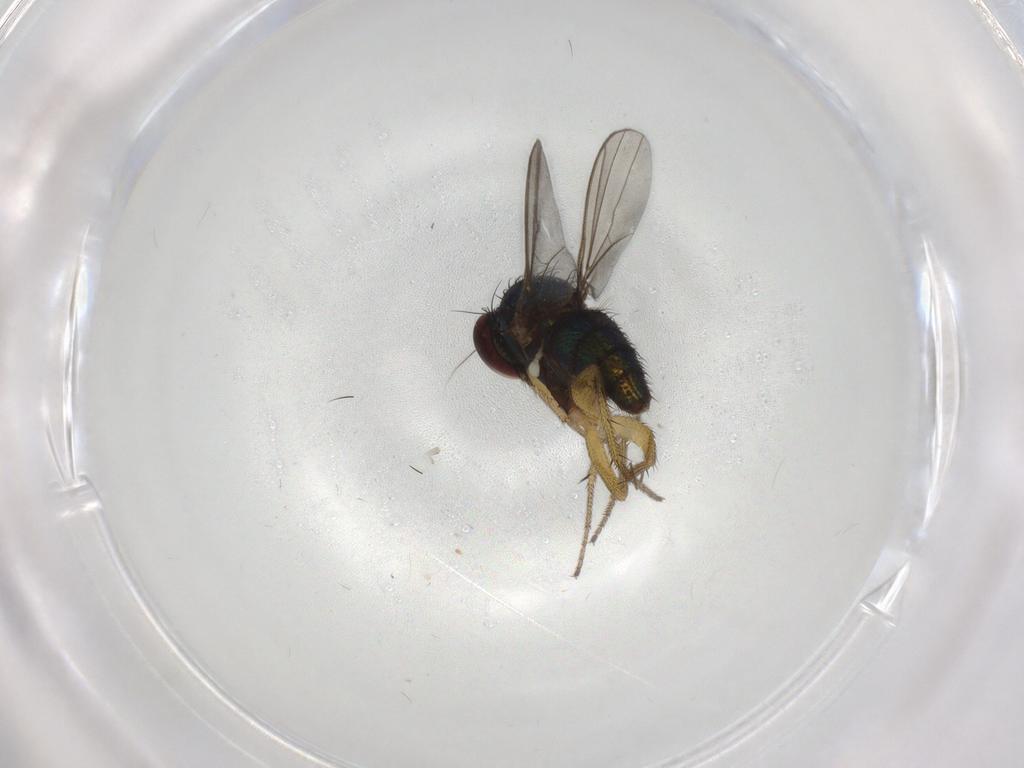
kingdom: Animalia
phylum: Arthropoda
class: Insecta
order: Diptera
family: Dolichopodidae
